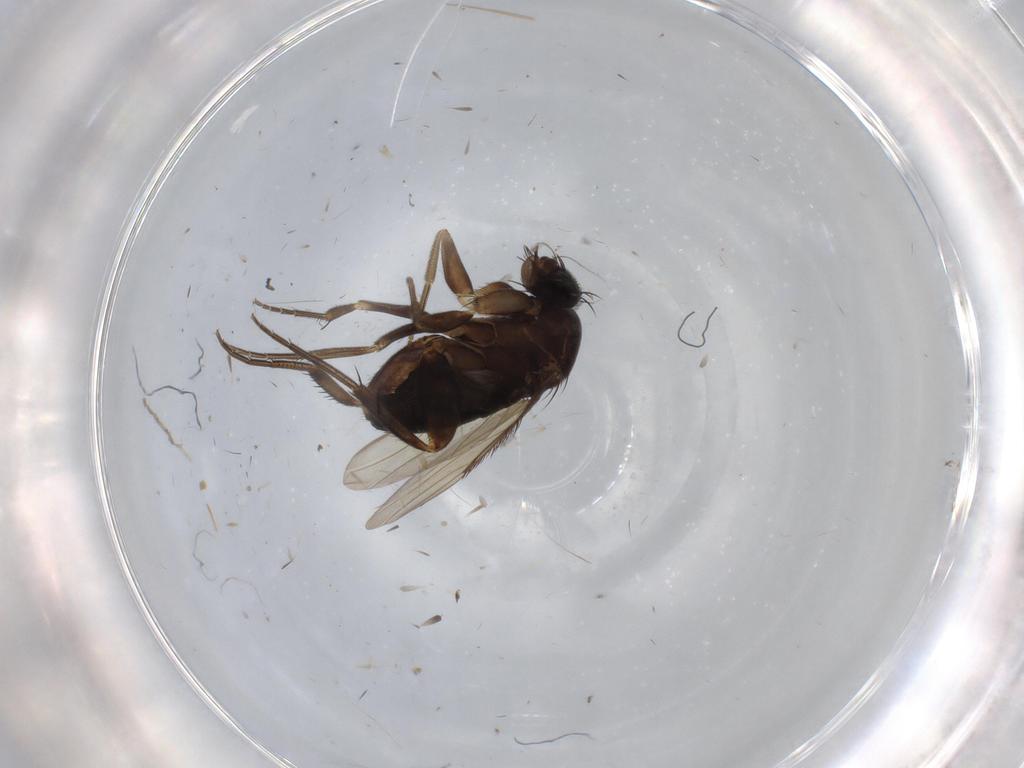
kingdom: Animalia
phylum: Arthropoda
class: Insecta
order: Diptera
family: Phoridae
